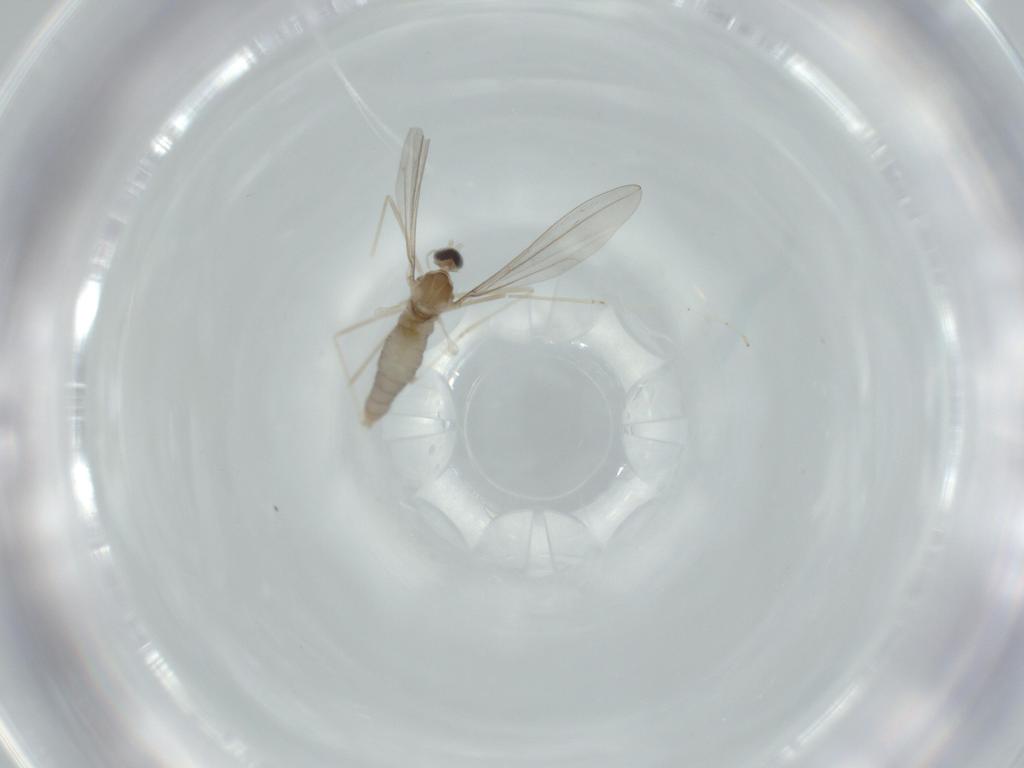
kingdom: Animalia
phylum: Arthropoda
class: Insecta
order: Diptera
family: Cecidomyiidae
